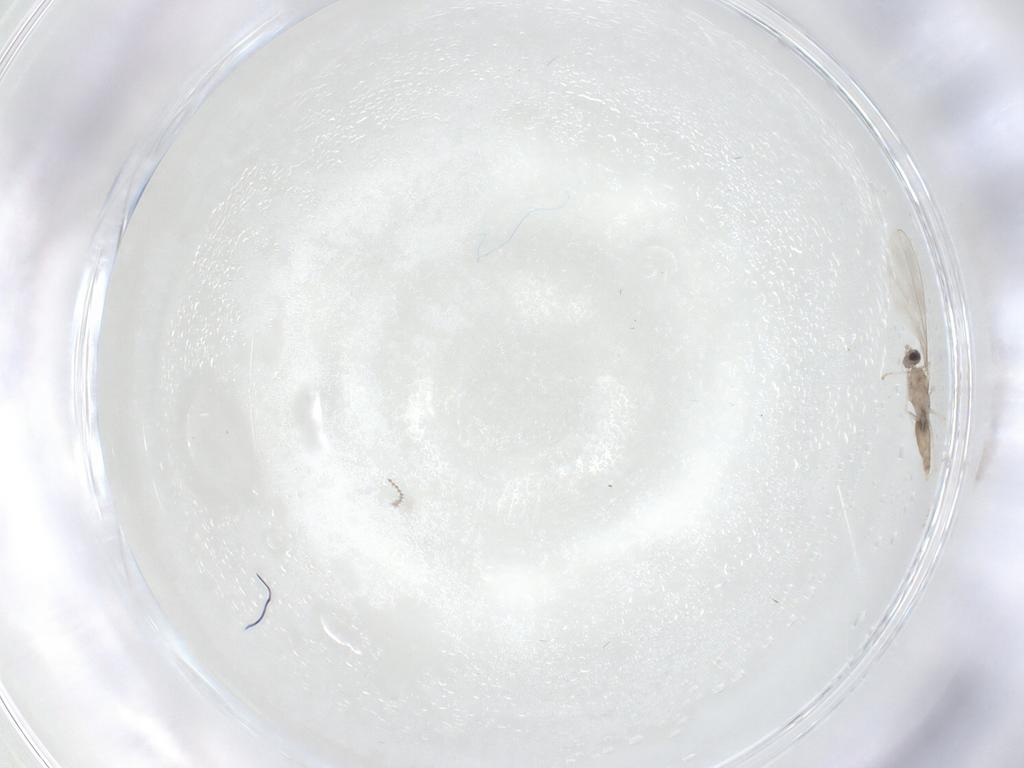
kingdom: Animalia
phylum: Arthropoda
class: Insecta
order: Diptera
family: Cecidomyiidae
